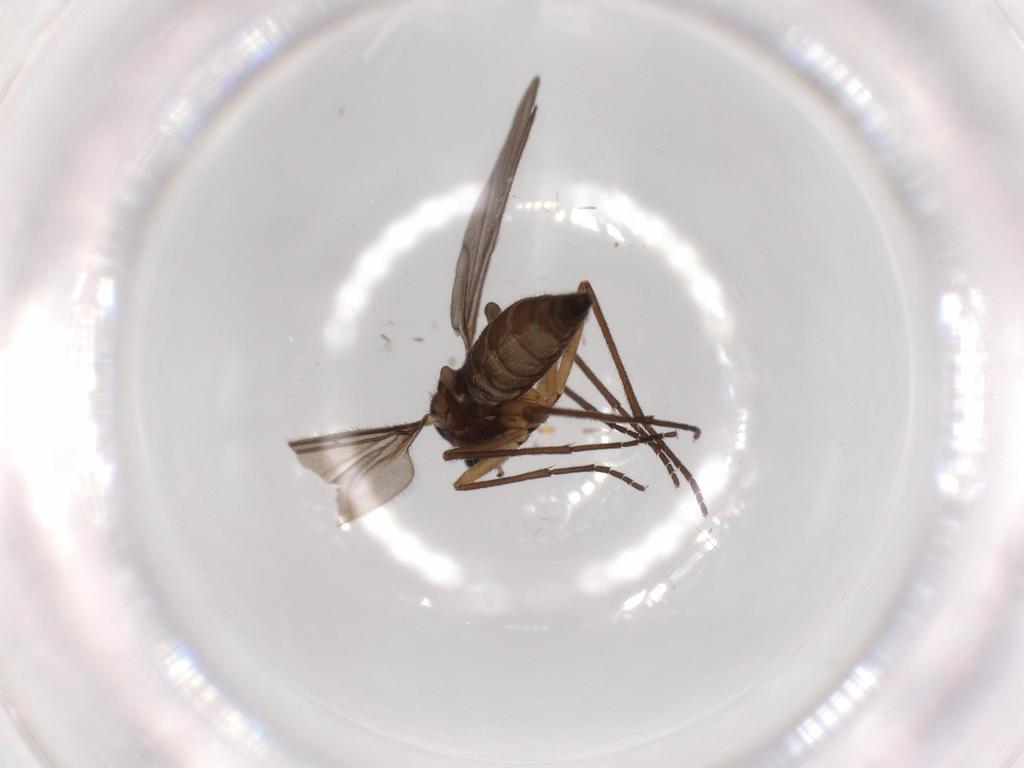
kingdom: Animalia
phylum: Arthropoda
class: Insecta
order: Diptera
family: Sciaridae
